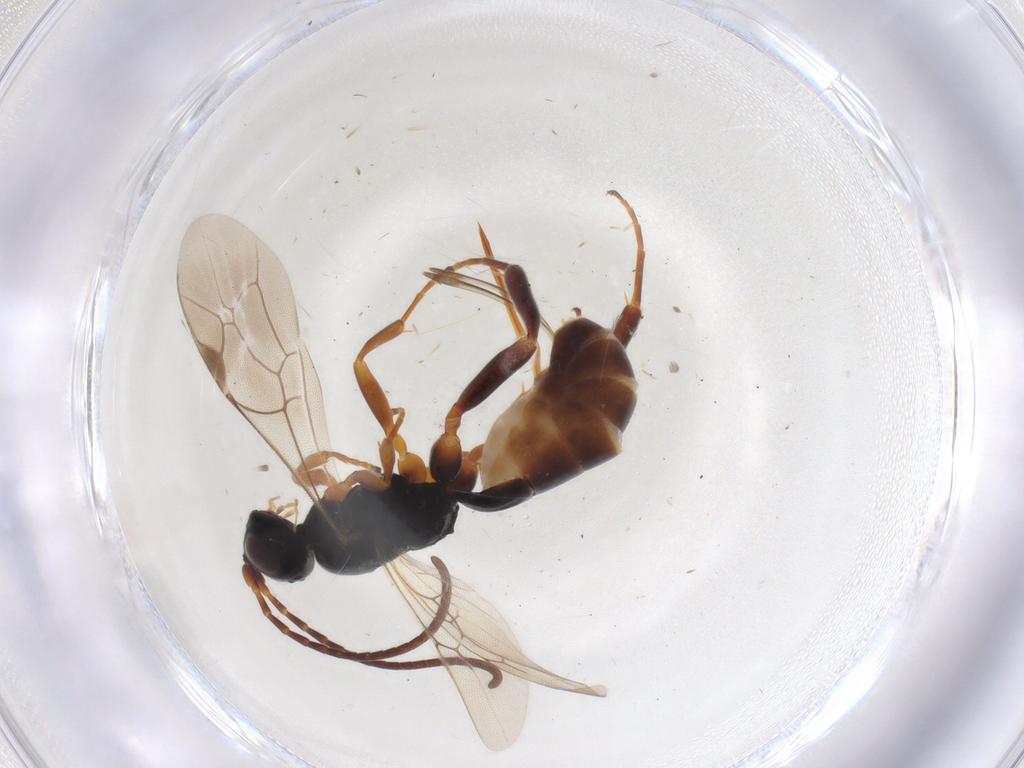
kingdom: Animalia
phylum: Arthropoda
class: Insecta
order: Hymenoptera
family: Ichneumonidae
